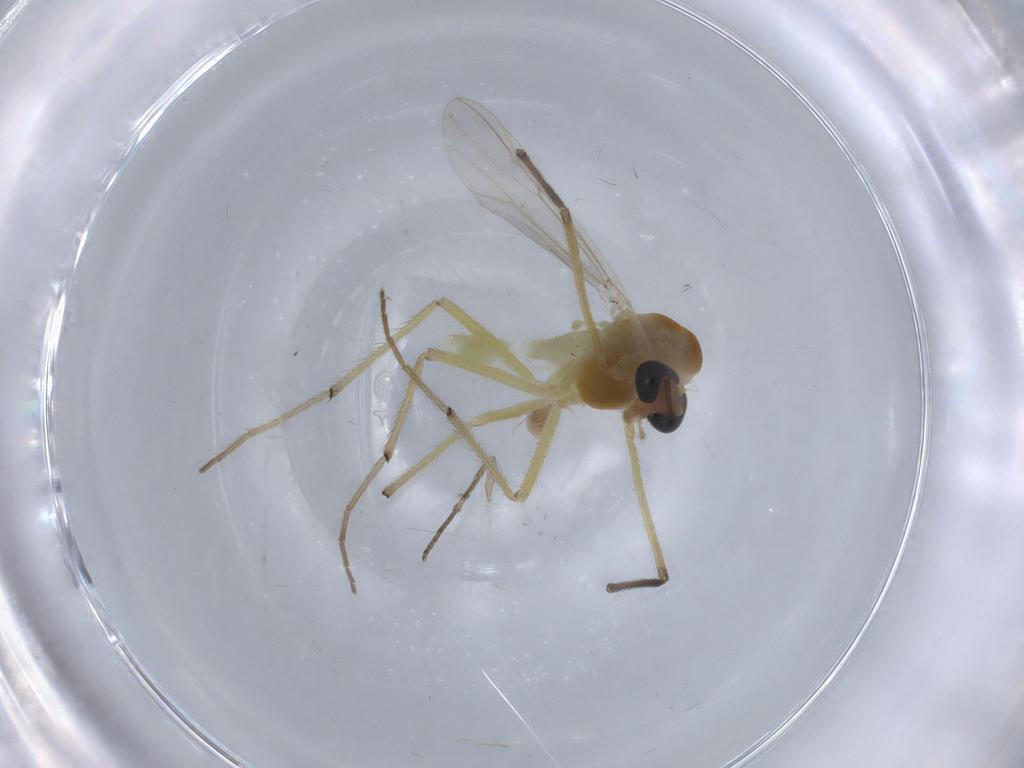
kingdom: Animalia
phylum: Arthropoda
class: Insecta
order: Diptera
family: Chironomidae
